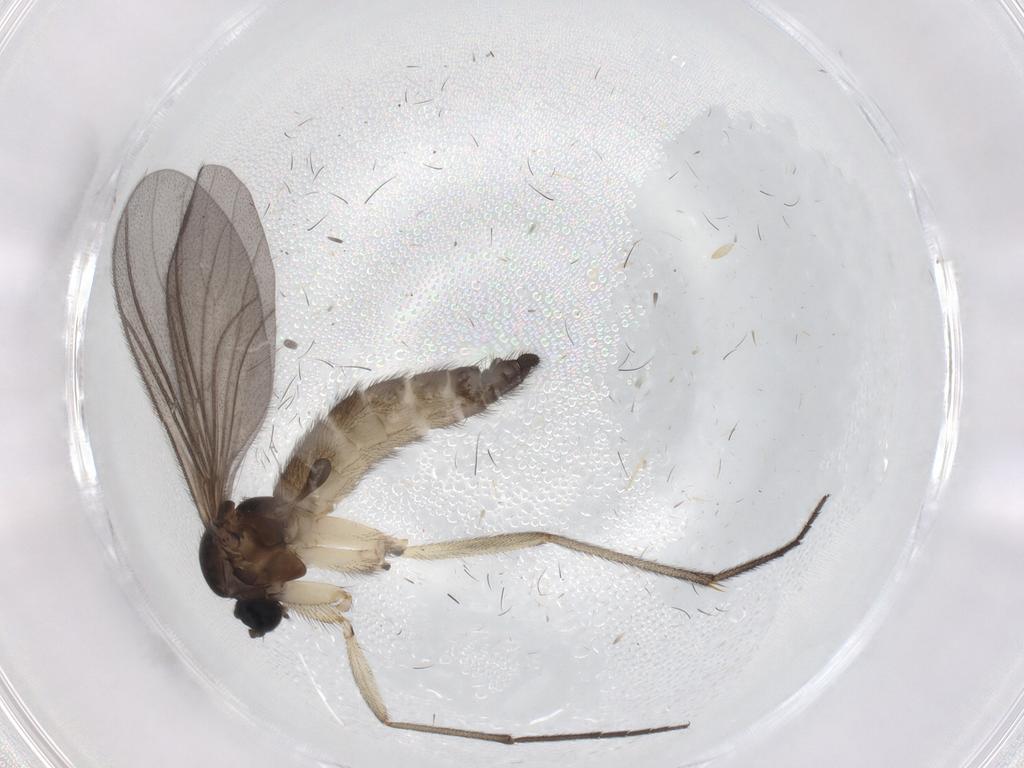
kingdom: Animalia
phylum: Arthropoda
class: Insecta
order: Diptera
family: Sciaridae
